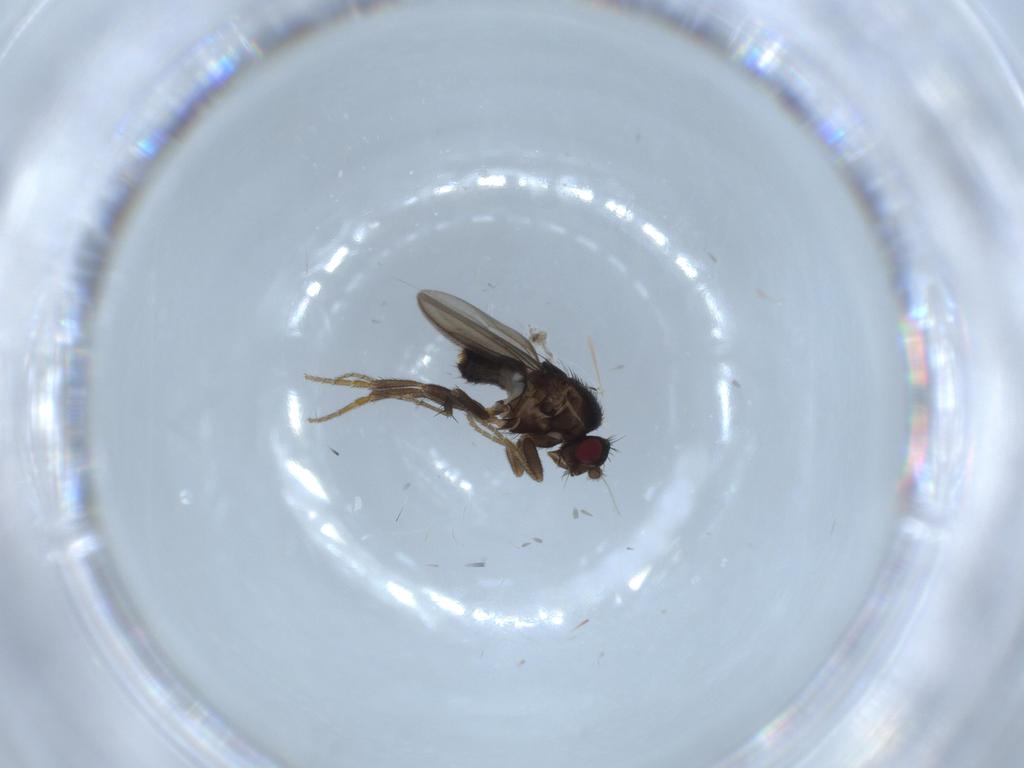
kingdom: Animalia
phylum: Arthropoda
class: Insecta
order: Diptera
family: Sphaeroceridae
